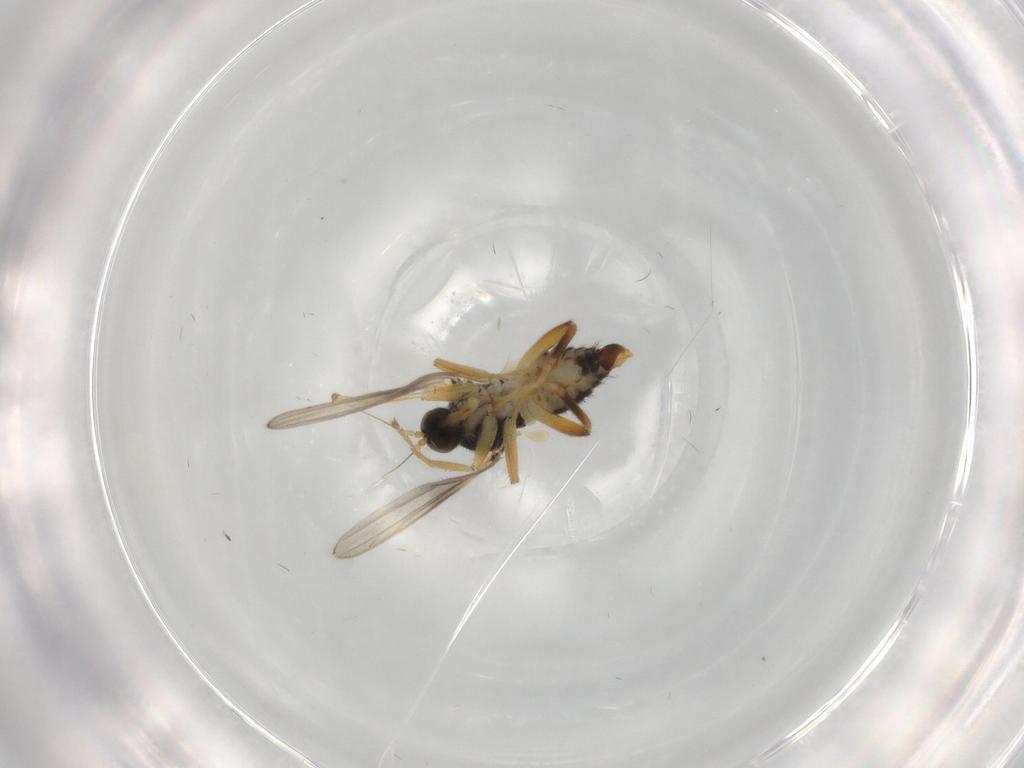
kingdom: Animalia
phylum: Arthropoda
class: Insecta
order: Diptera
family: Hybotidae
